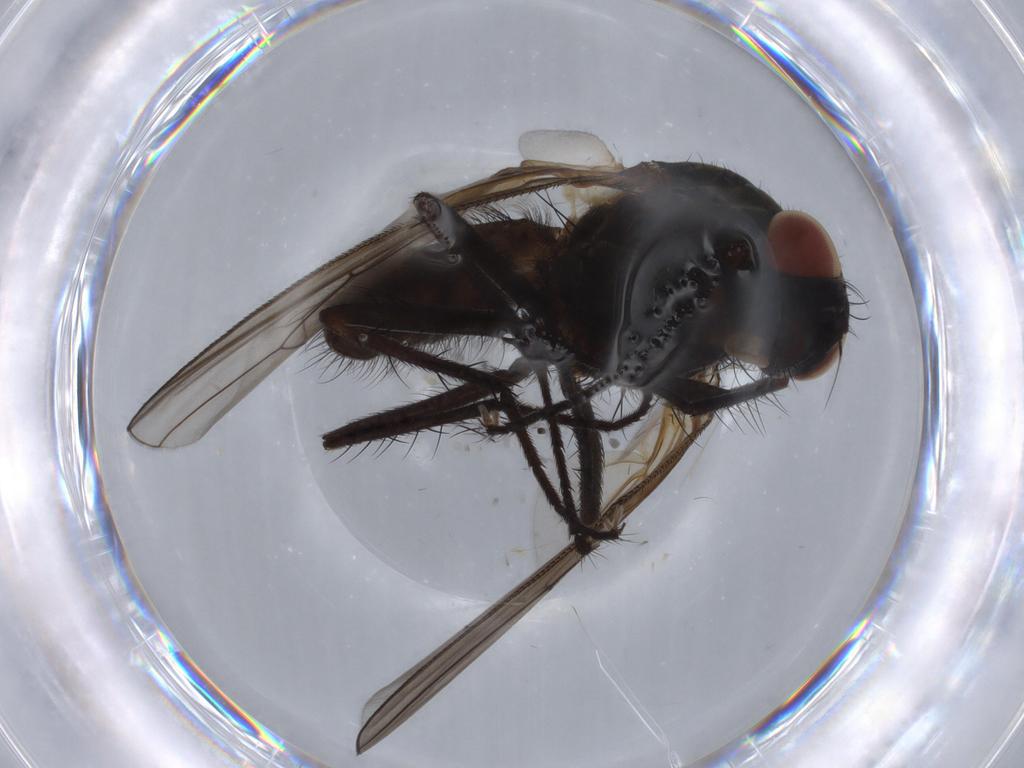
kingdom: Animalia
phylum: Arthropoda
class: Insecta
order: Diptera
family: Anthomyiidae
